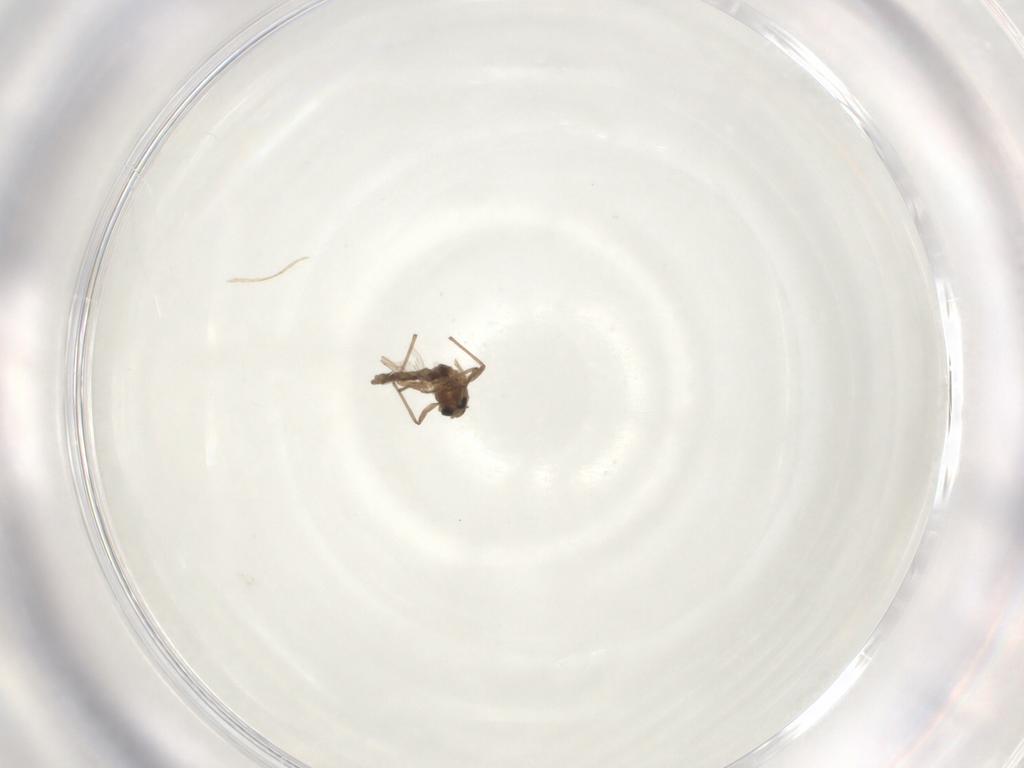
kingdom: Animalia
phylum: Arthropoda
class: Insecta
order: Diptera
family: Chironomidae
